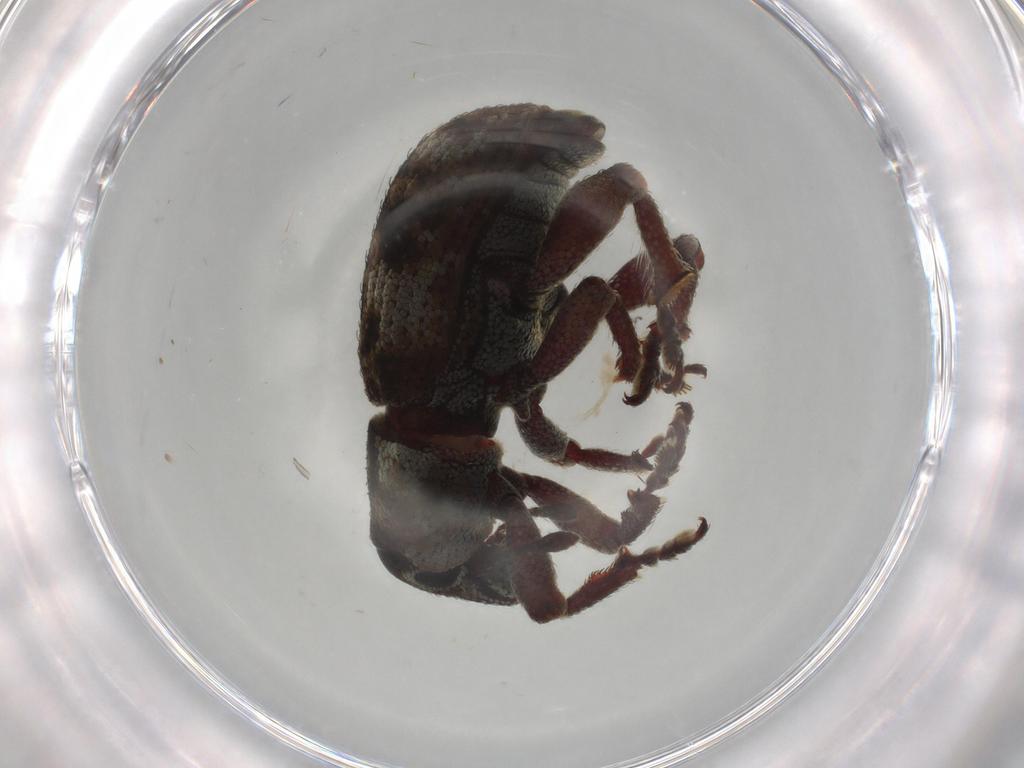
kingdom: Animalia
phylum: Arthropoda
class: Insecta
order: Coleoptera
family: Curculionidae
